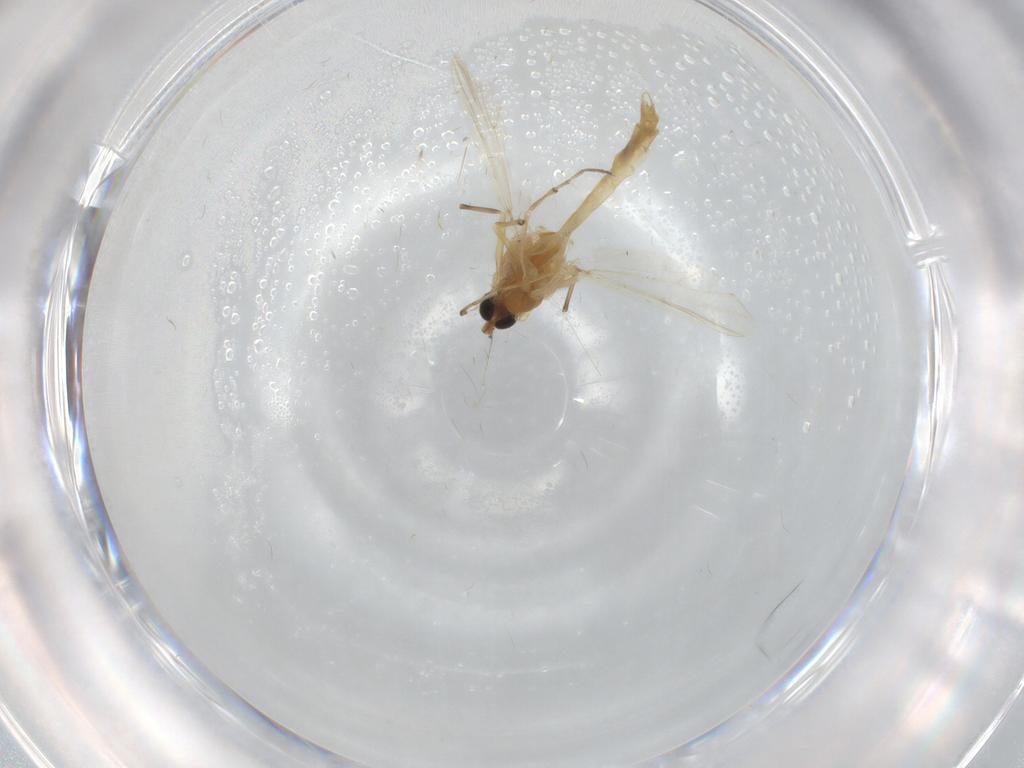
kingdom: Animalia
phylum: Arthropoda
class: Insecta
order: Diptera
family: Chironomidae
